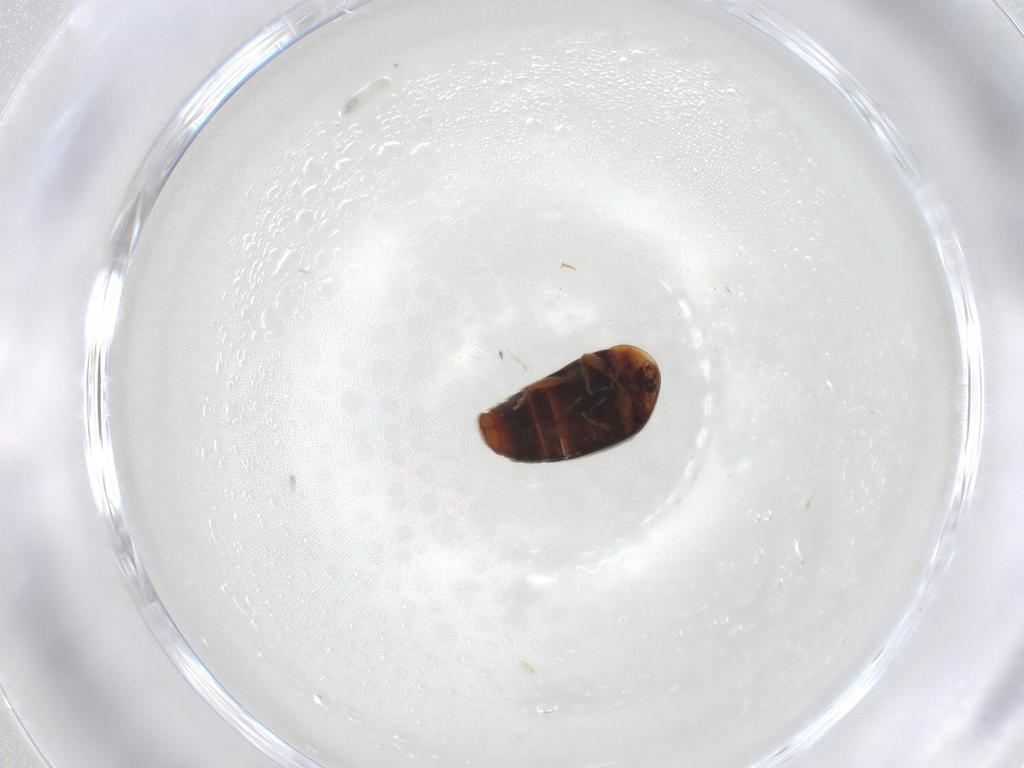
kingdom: Animalia
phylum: Arthropoda
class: Insecta
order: Coleoptera
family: Corylophidae
